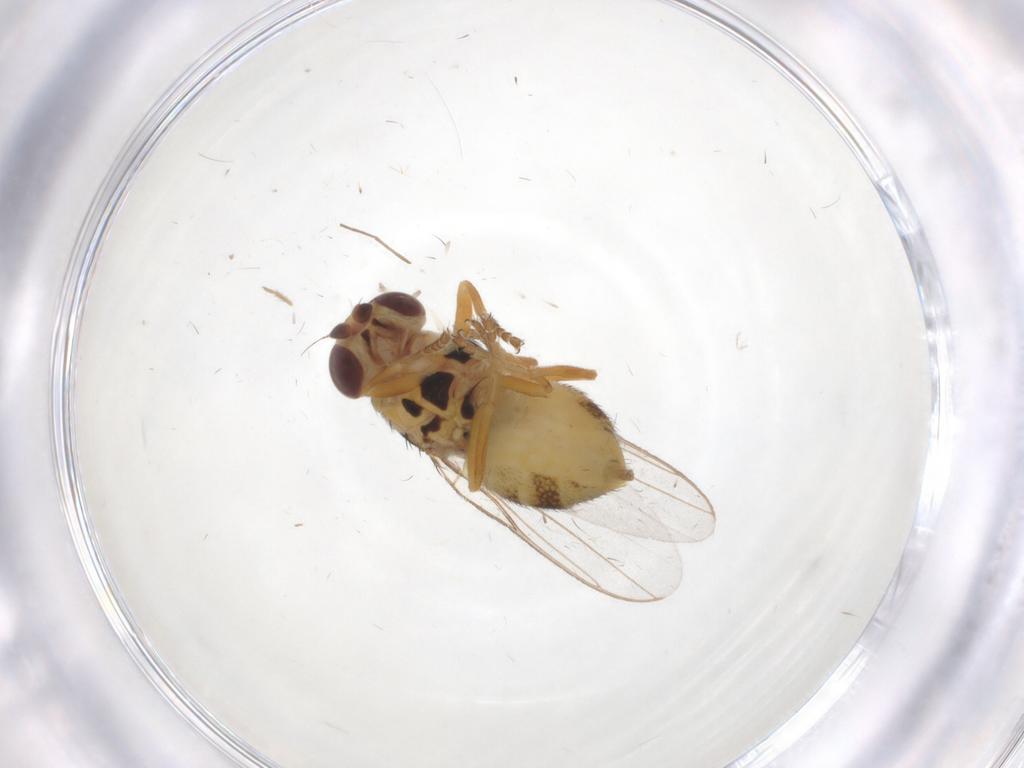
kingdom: Animalia
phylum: Arthropoda
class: Insecta
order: Diptera
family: Chloropidae
